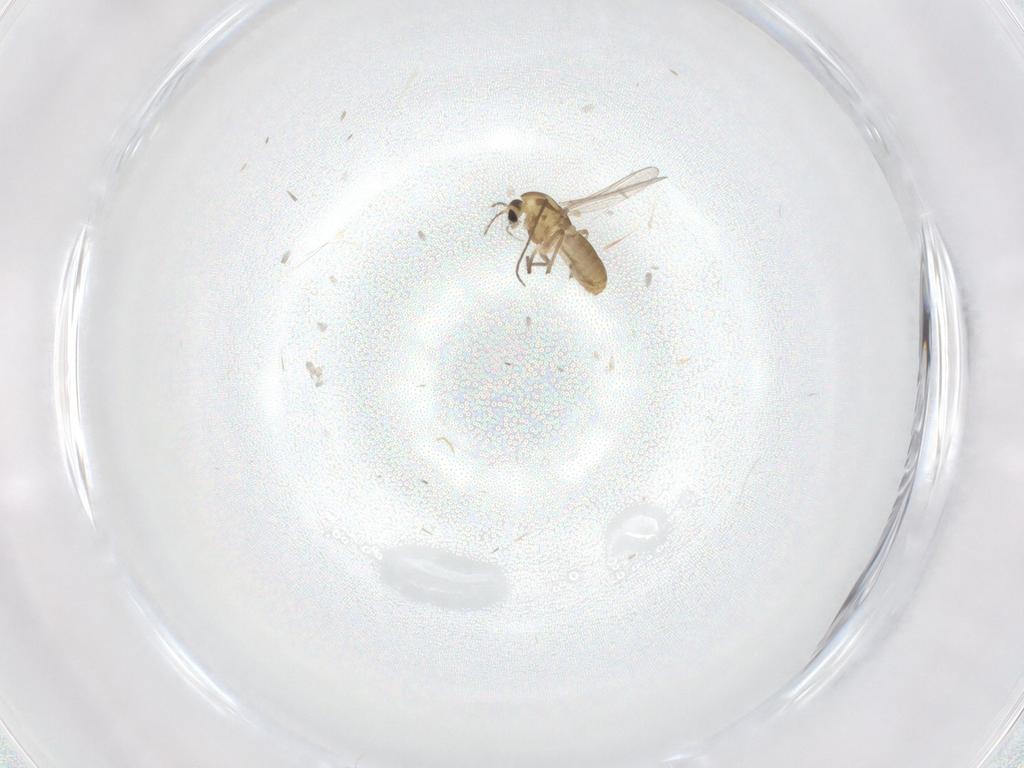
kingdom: Animalia
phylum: Arthropoda
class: Insecta
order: Diptera
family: Chironomidae
